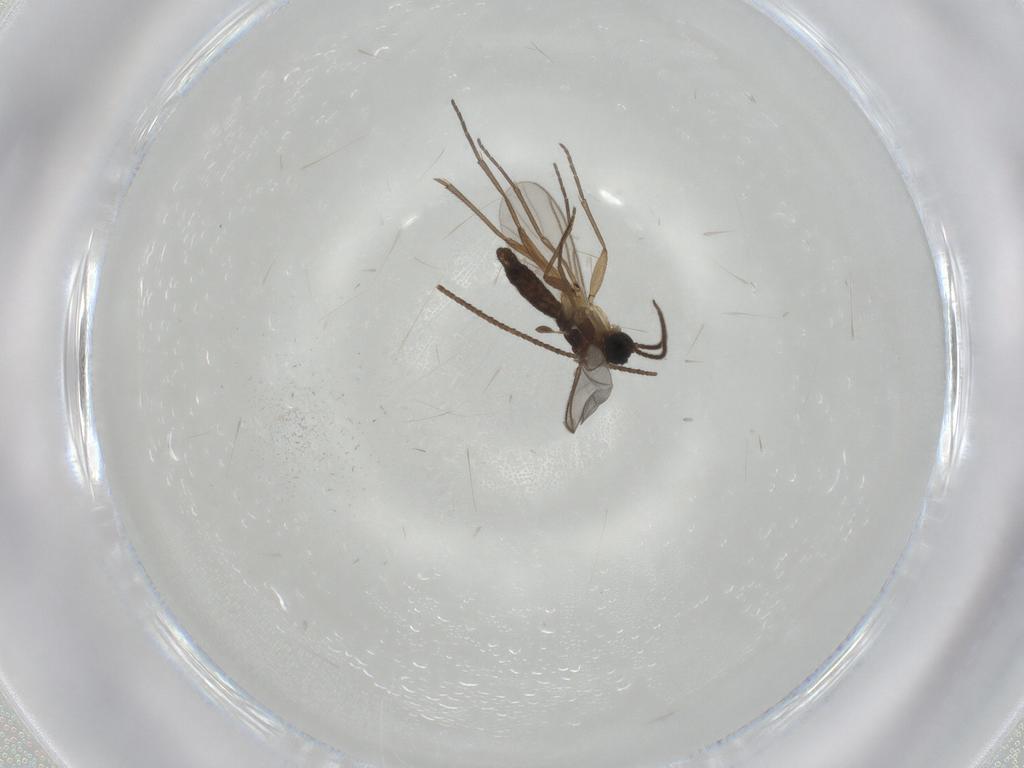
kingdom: Animalia
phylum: Arthropoda
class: Insecta
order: Lepidoptera
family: Gelechiidae
